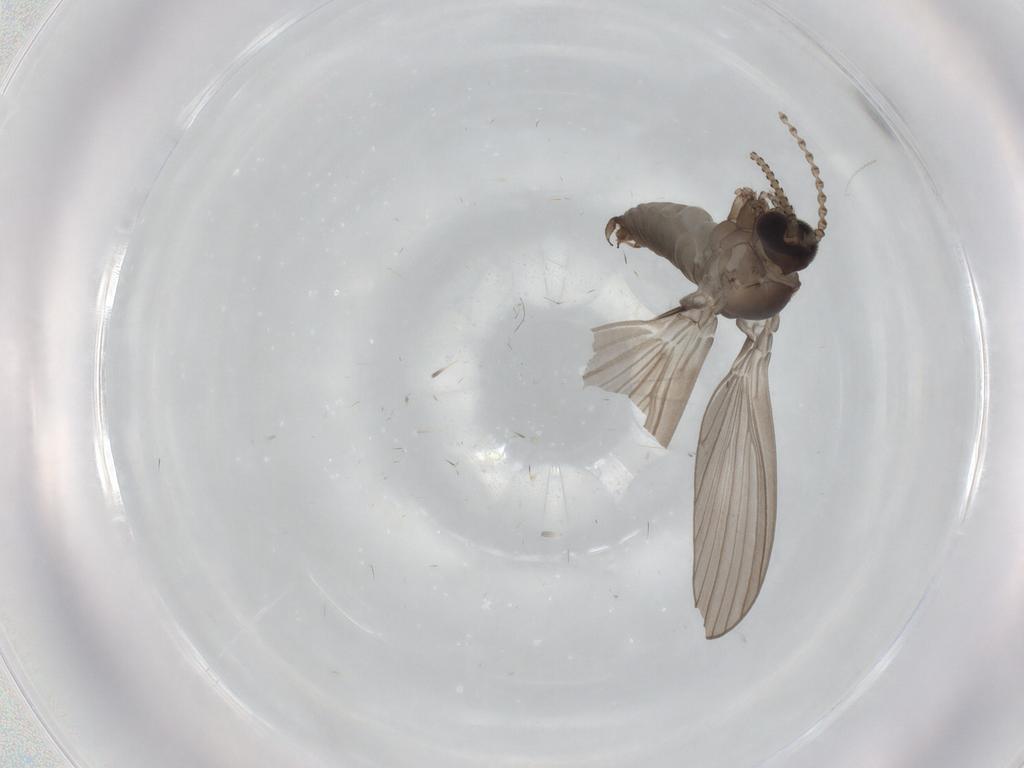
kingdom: Animalia
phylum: Arthropoda
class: Insecta
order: Diptera
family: Psychodidae
